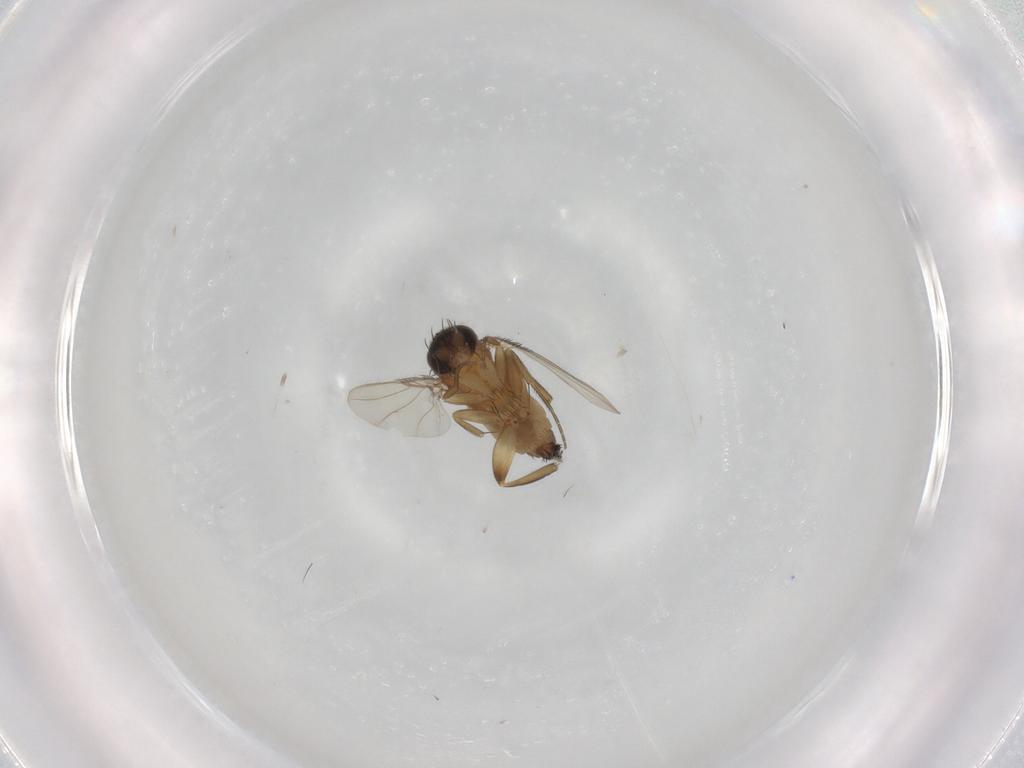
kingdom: Animalia
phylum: Arthropoda
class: Insecta
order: Diptera
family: Phoridae
